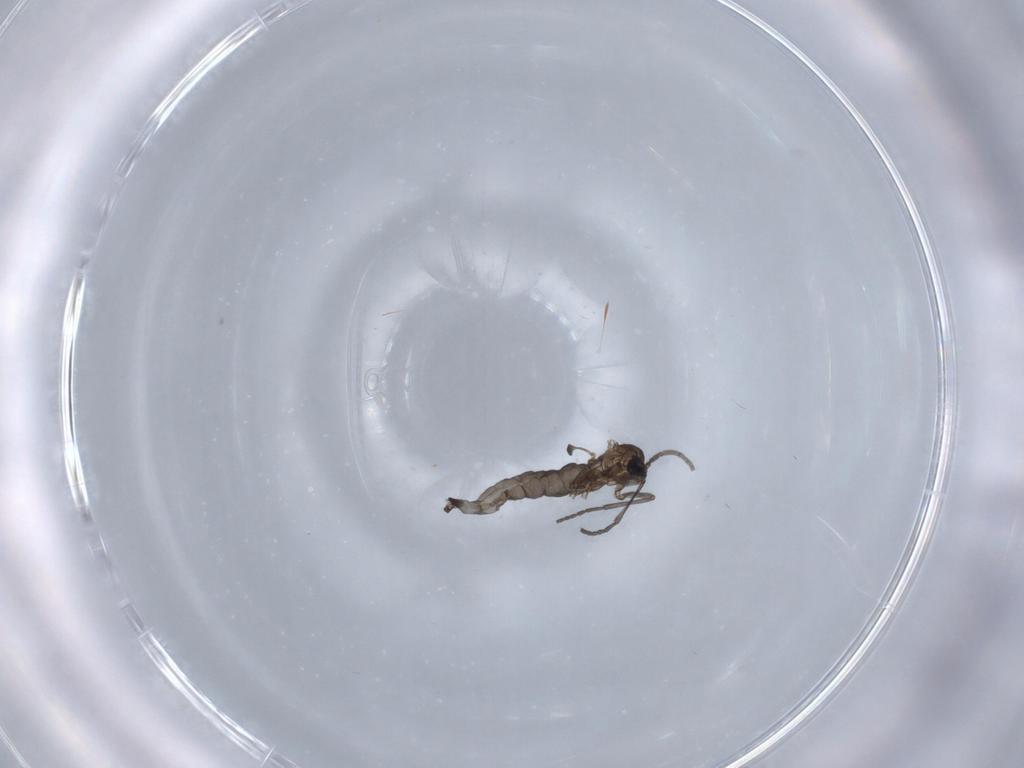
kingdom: Animalia
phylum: Arthropoda
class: Insecta
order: Diptera
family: Sciaridae
